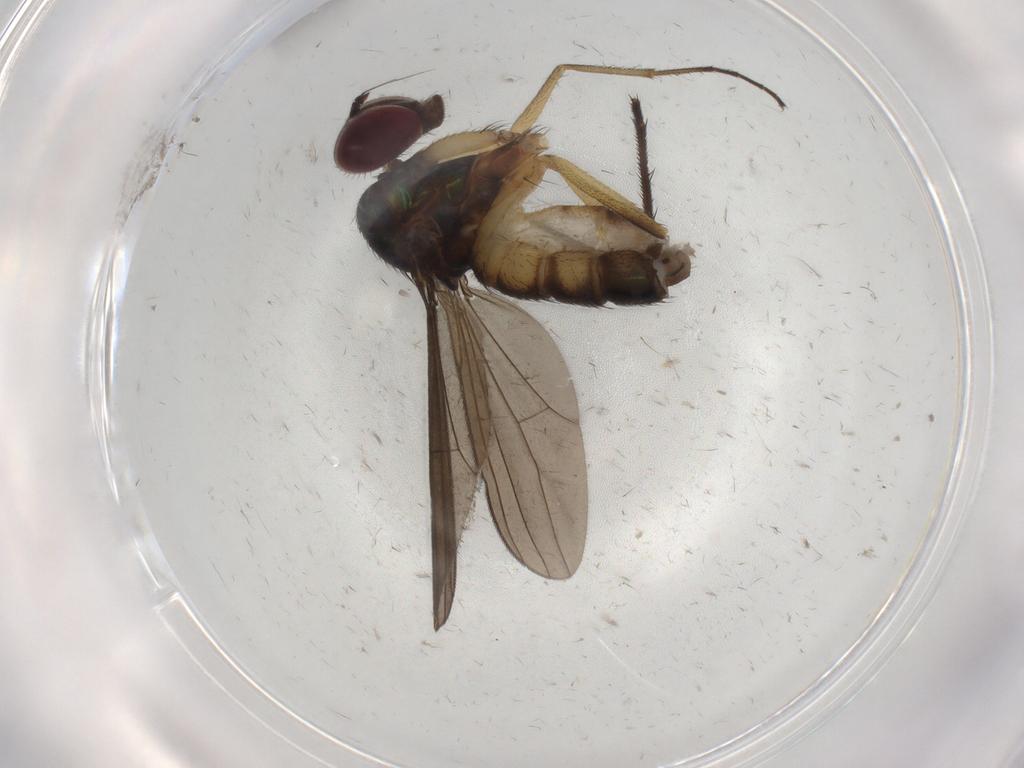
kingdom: Animalia
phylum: Arthropoda
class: Insecta
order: Diptera
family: Dolichopodidae
